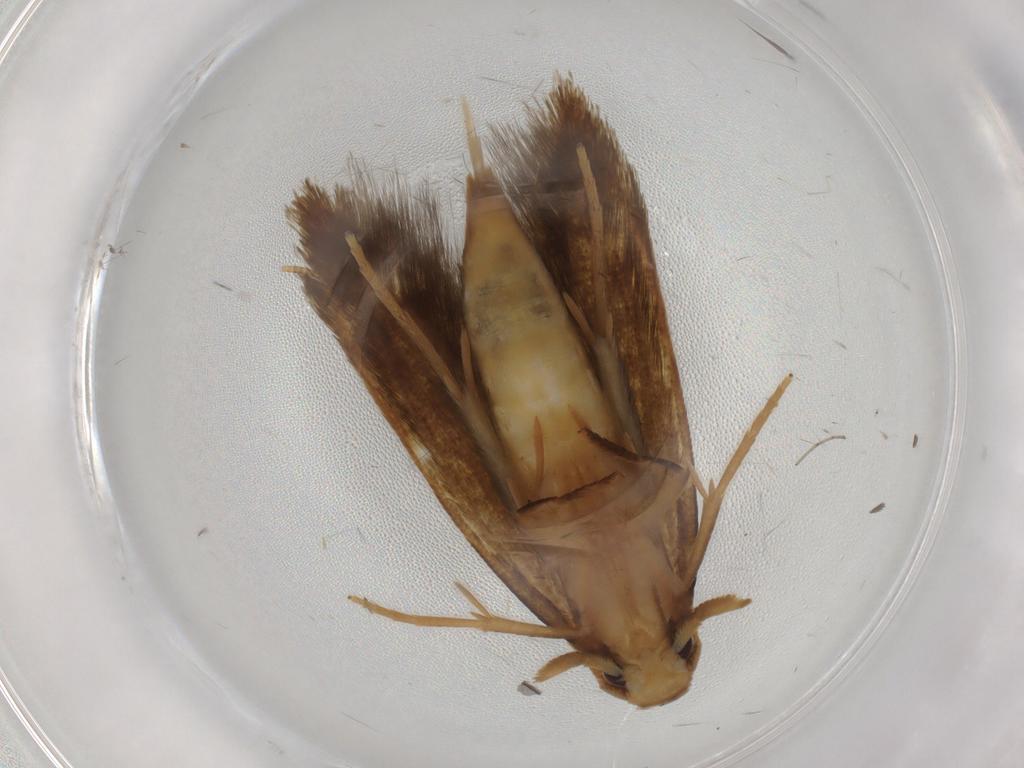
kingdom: Animalia
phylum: Arthropoda
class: Insecta
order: Lepidoptera
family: Tineidae
